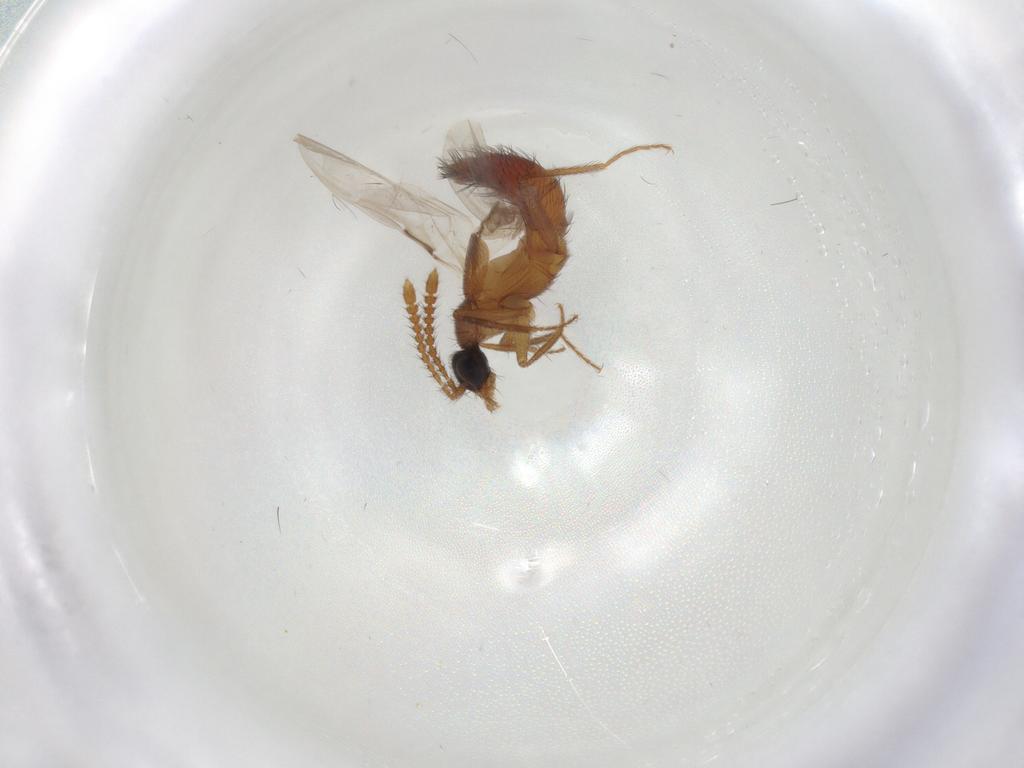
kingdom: Animalia
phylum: Arthropoda
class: Insecta
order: Coleoptera
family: Staphylinidae
